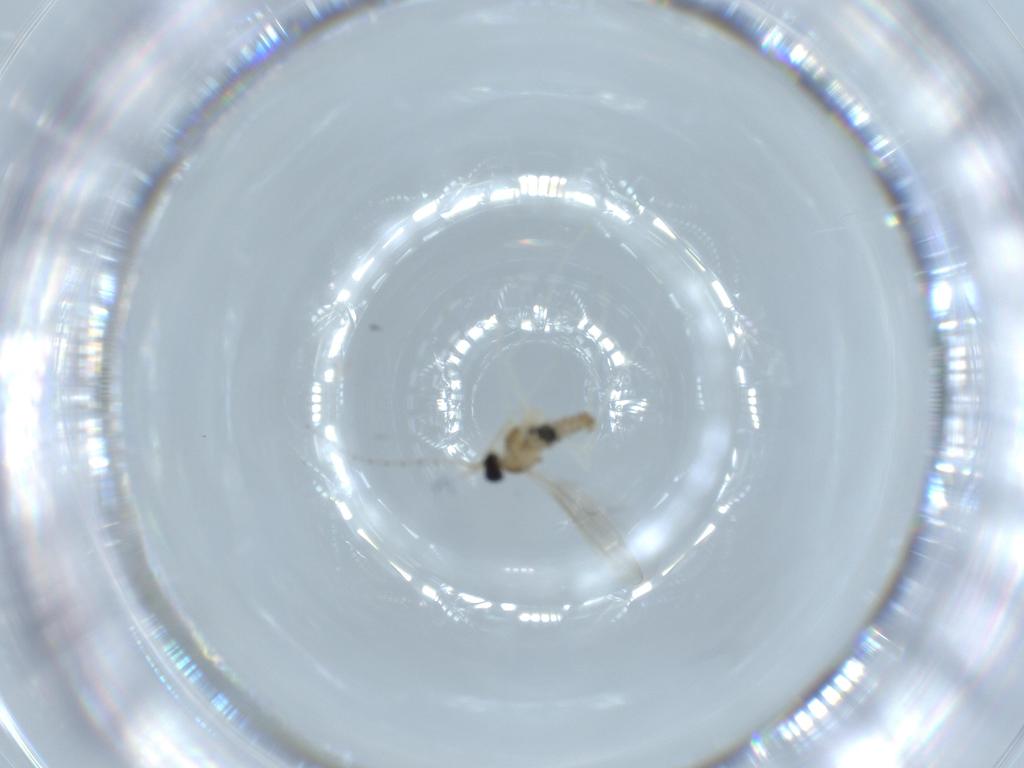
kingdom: Animalia
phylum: Arthropoda
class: Insecta
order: Diptera
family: Cecidomyiidae
